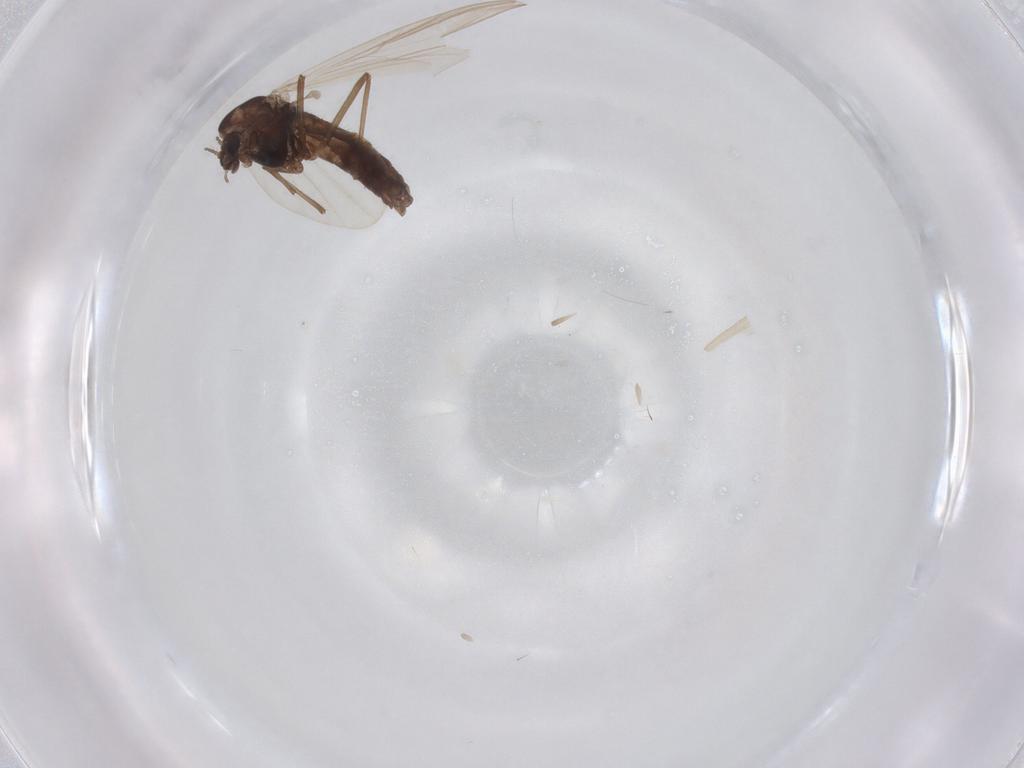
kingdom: Animalia
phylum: Arthropoda
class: Insecta
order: Diptera
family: Chironomidae
